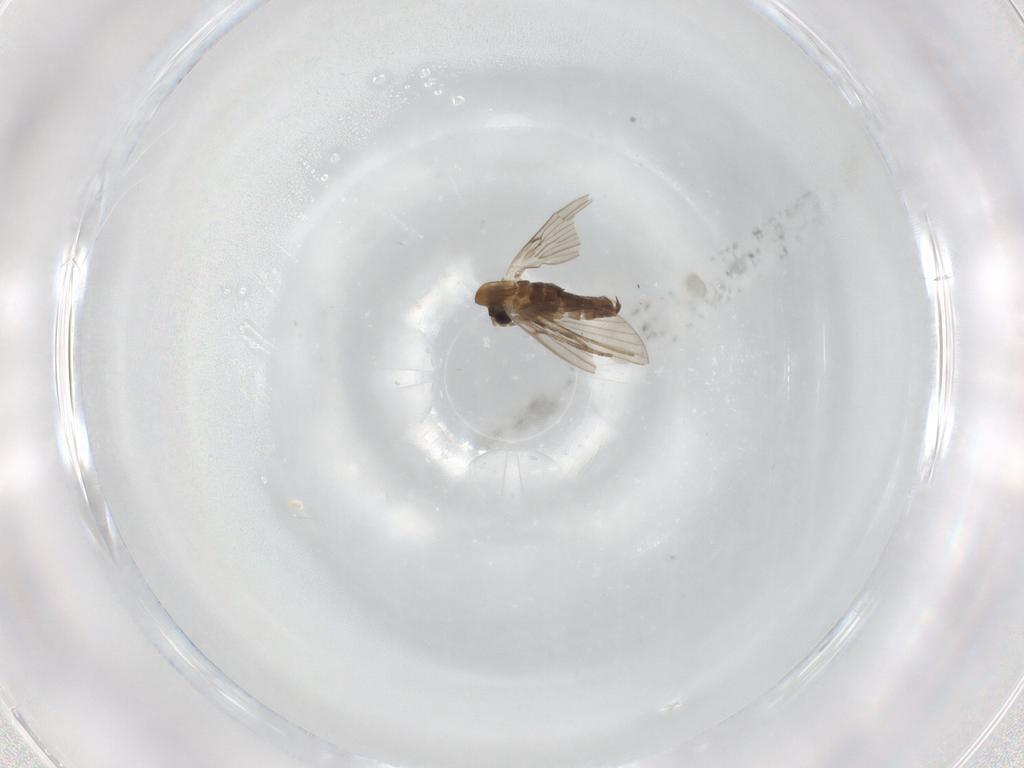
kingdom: Animalia
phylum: Arthropoda
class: Insecta
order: Diptera
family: Psychodidae
